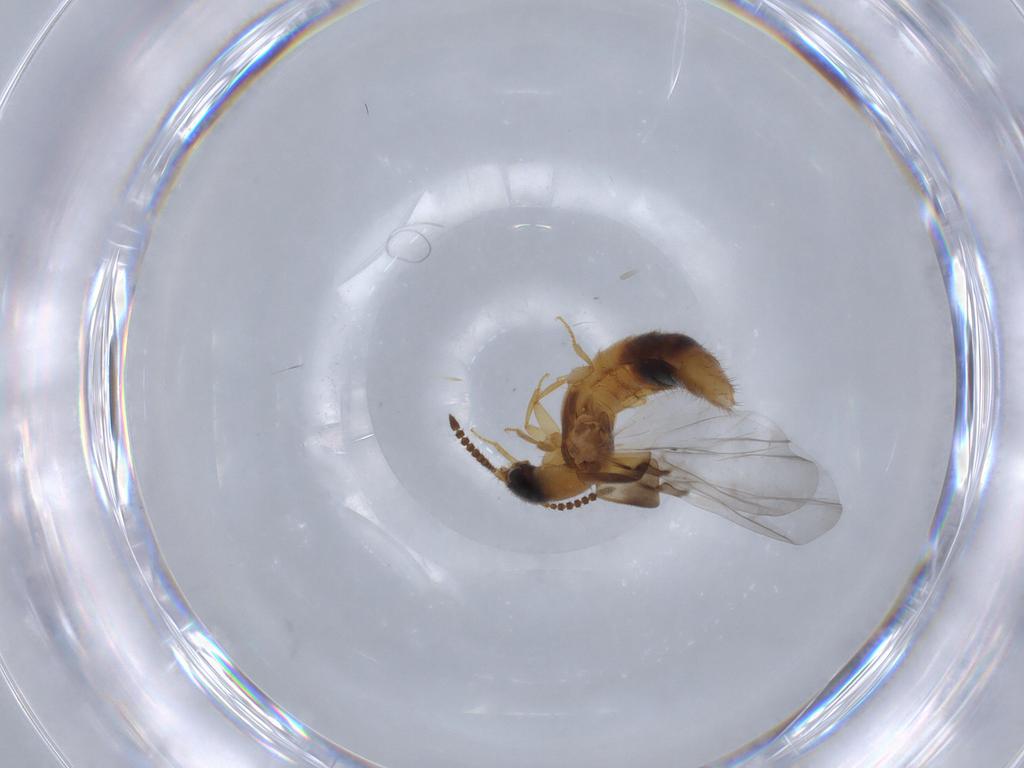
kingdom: Animalia
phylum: Arthropoda
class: Insecta
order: Coleoptera
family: Staphylinidae
